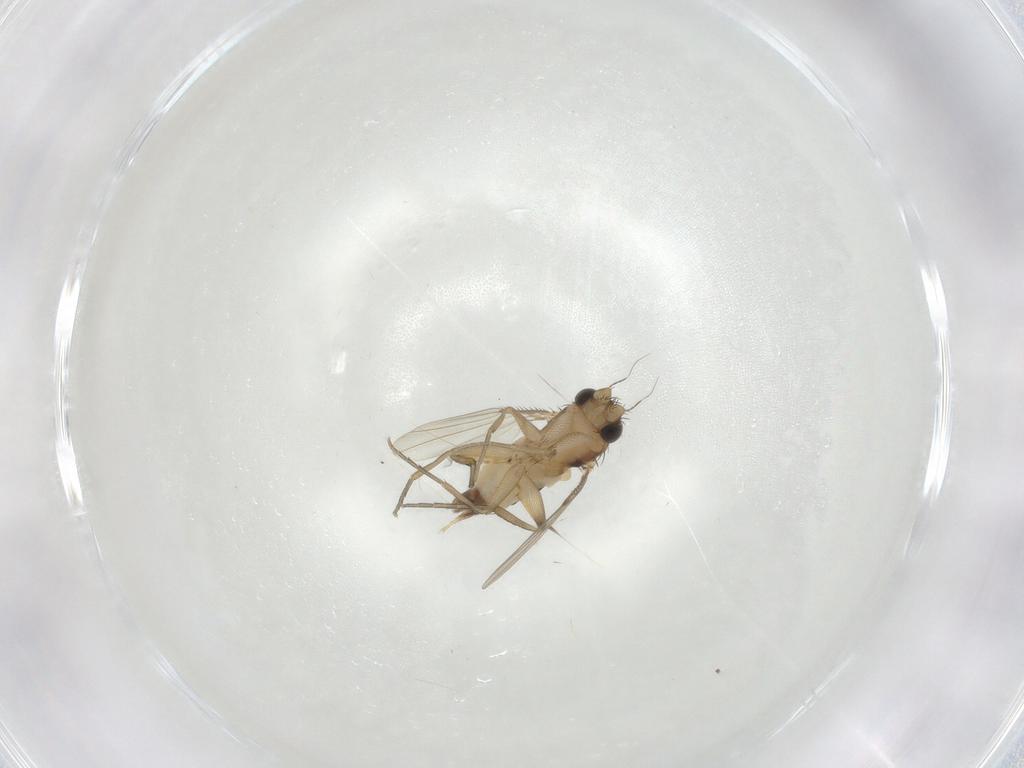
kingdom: Animalia
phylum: Arthropoda
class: Insecta
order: Diptera
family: Phoridae
